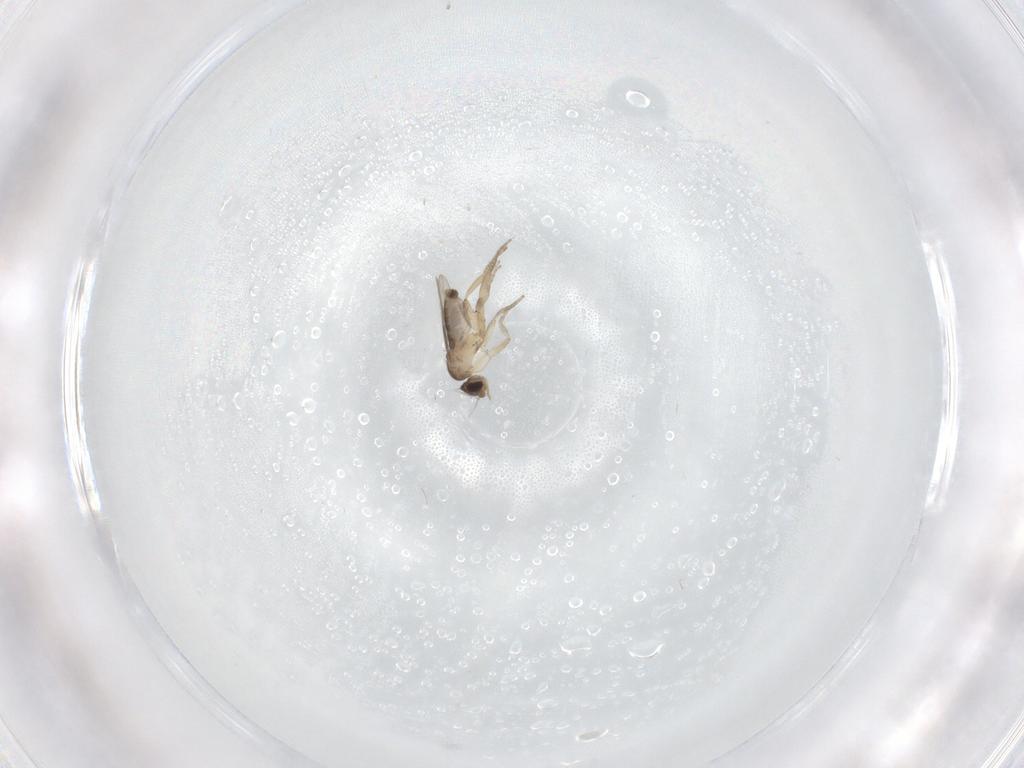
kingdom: Animalia
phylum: Arthropoda
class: Insecta
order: Diptera
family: Phoridae
